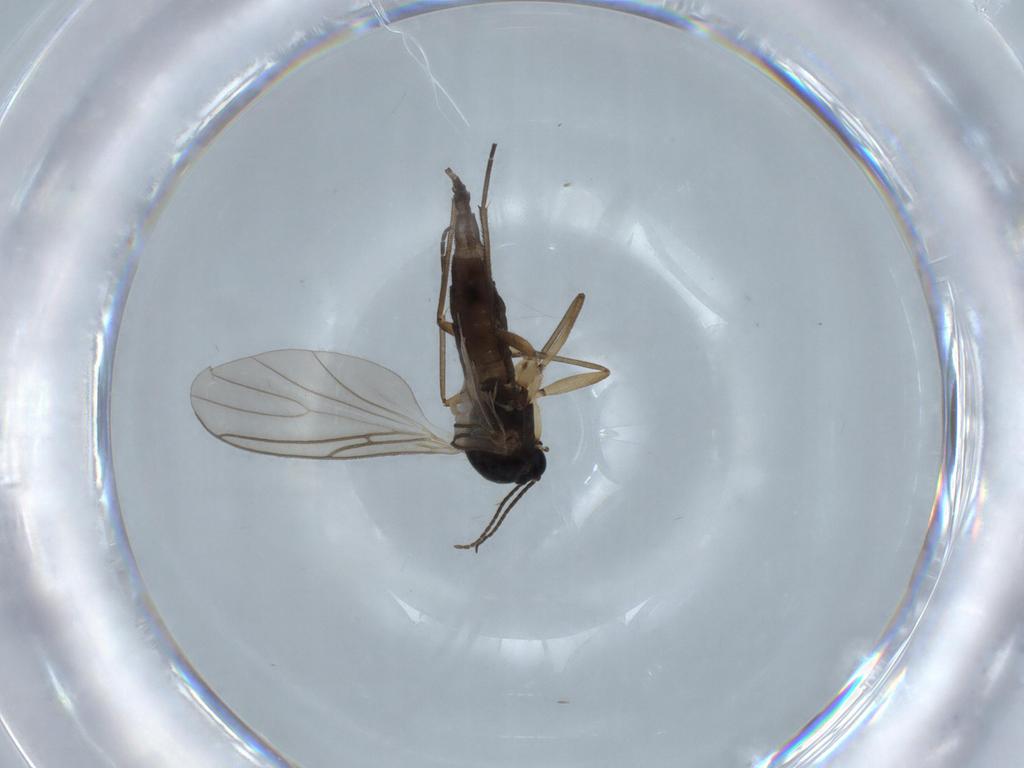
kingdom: Animalia
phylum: Arthropoda
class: Insecta
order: Diptera
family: Sciaridae
